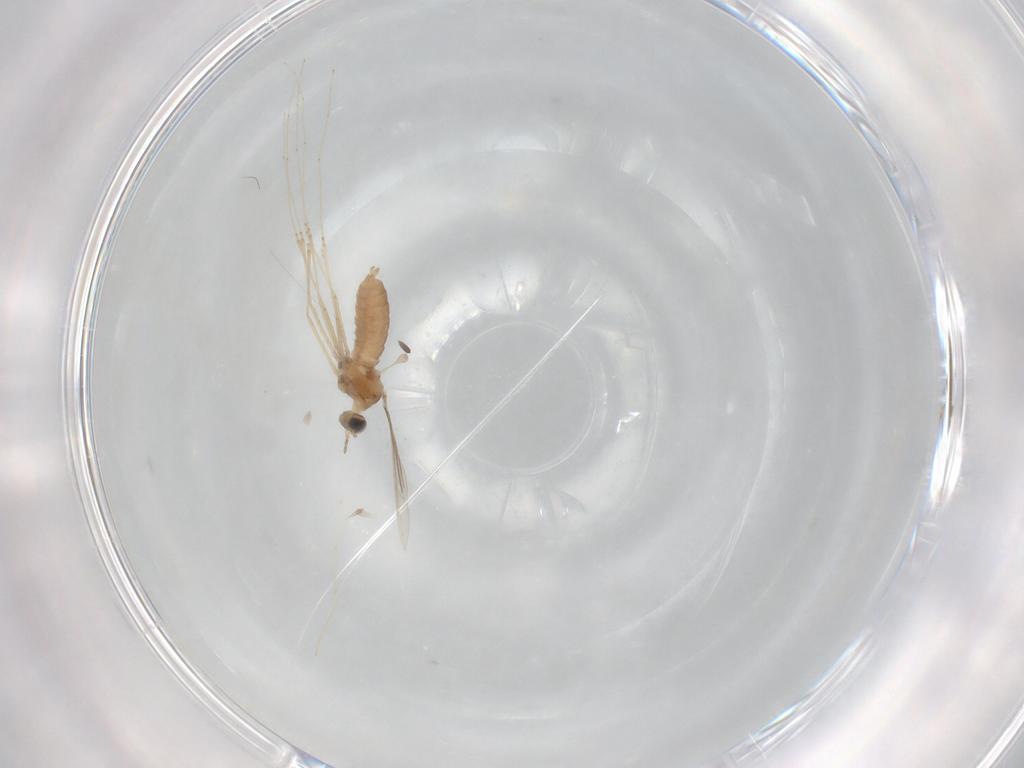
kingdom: Animalia
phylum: Arthropoda
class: Insecta
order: Diptera
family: Cecidomyiidae
